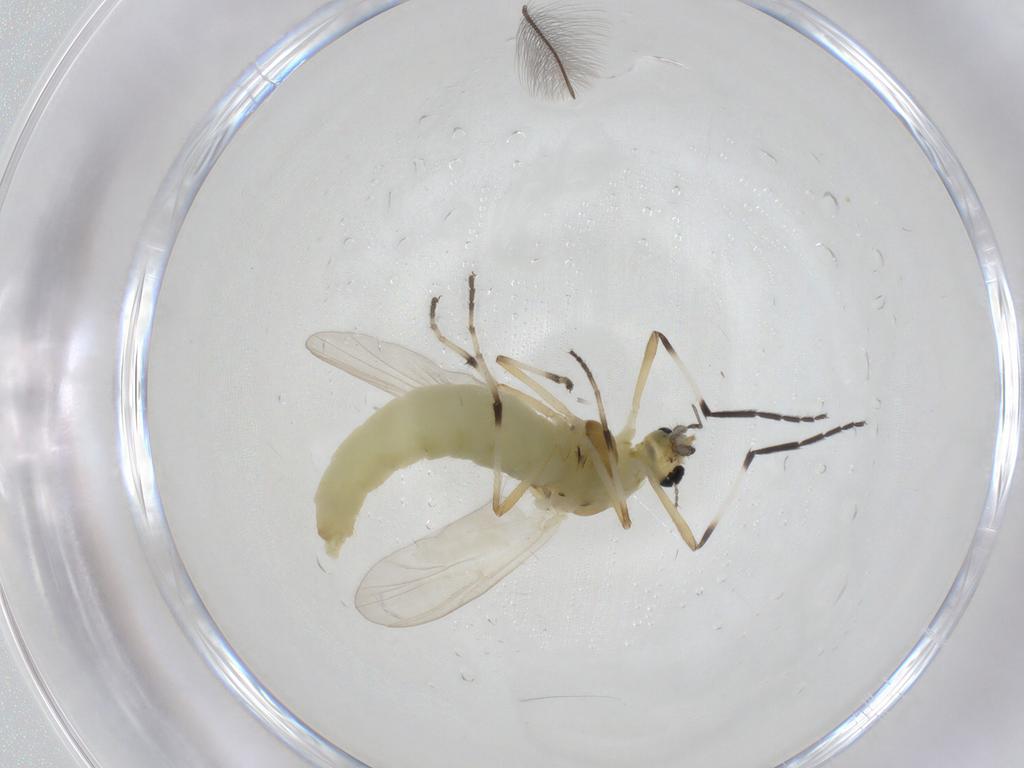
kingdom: Animalia
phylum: Arthropoda
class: Insecta
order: Diptera
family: Chironomidae
